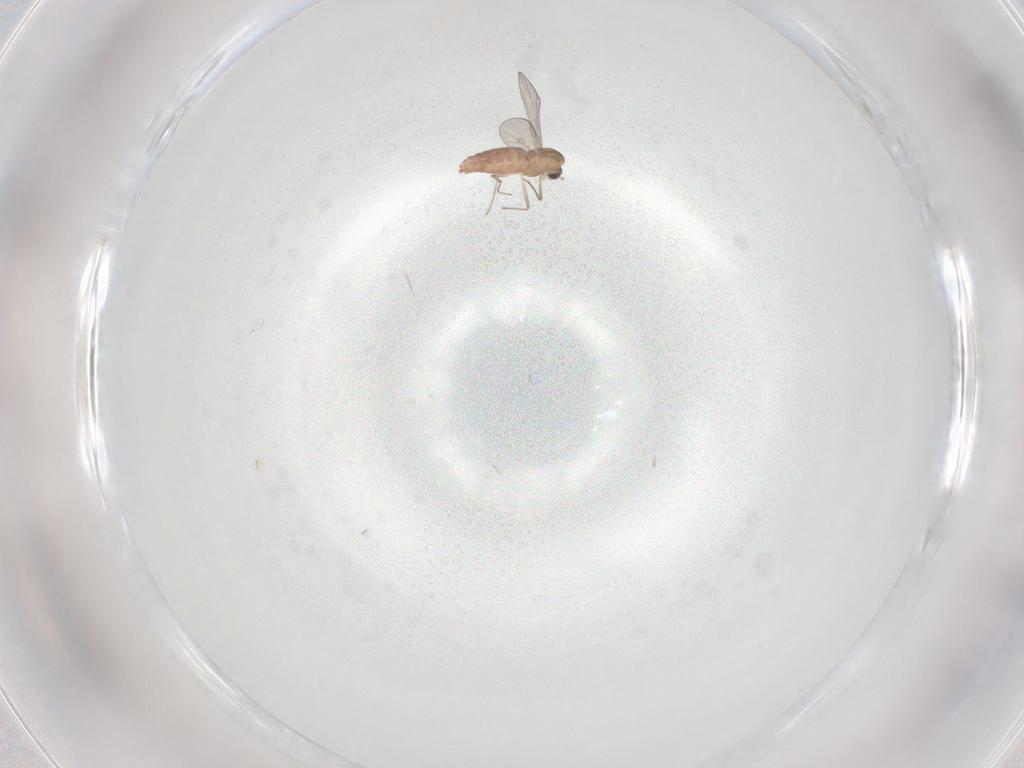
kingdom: Animalia
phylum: Arthropoda
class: Insecta
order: Diptera
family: Chironomidae
